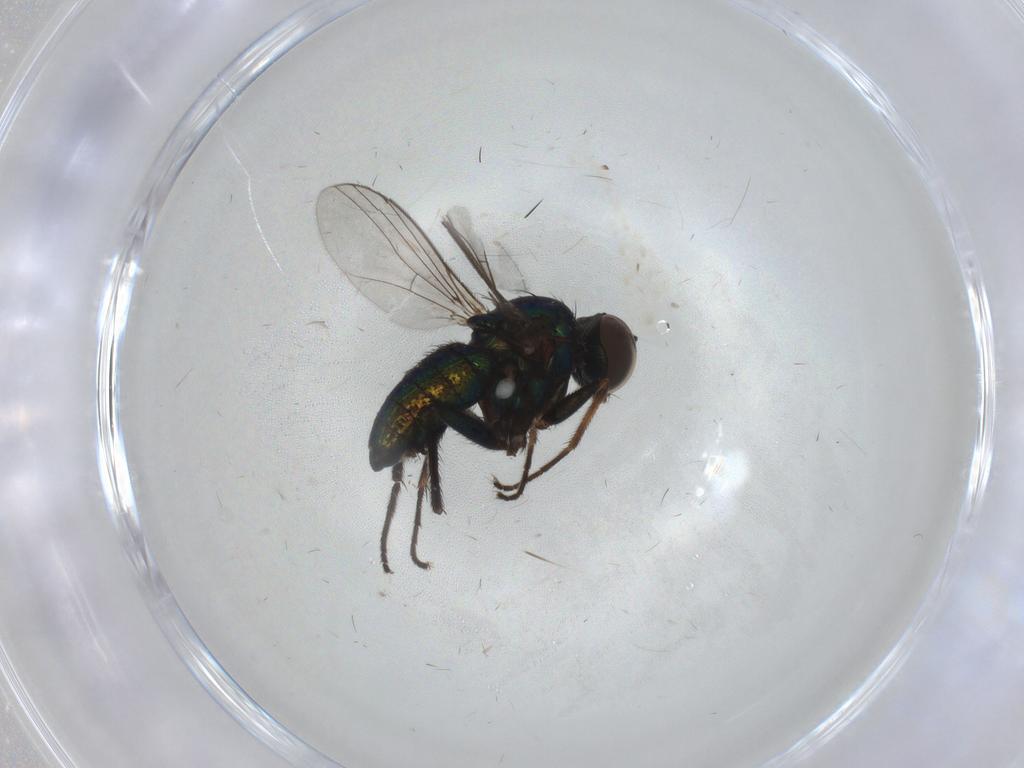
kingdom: Animalia
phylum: Arthropoda
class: Insecta
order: Diptera
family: Dolichopodidae
